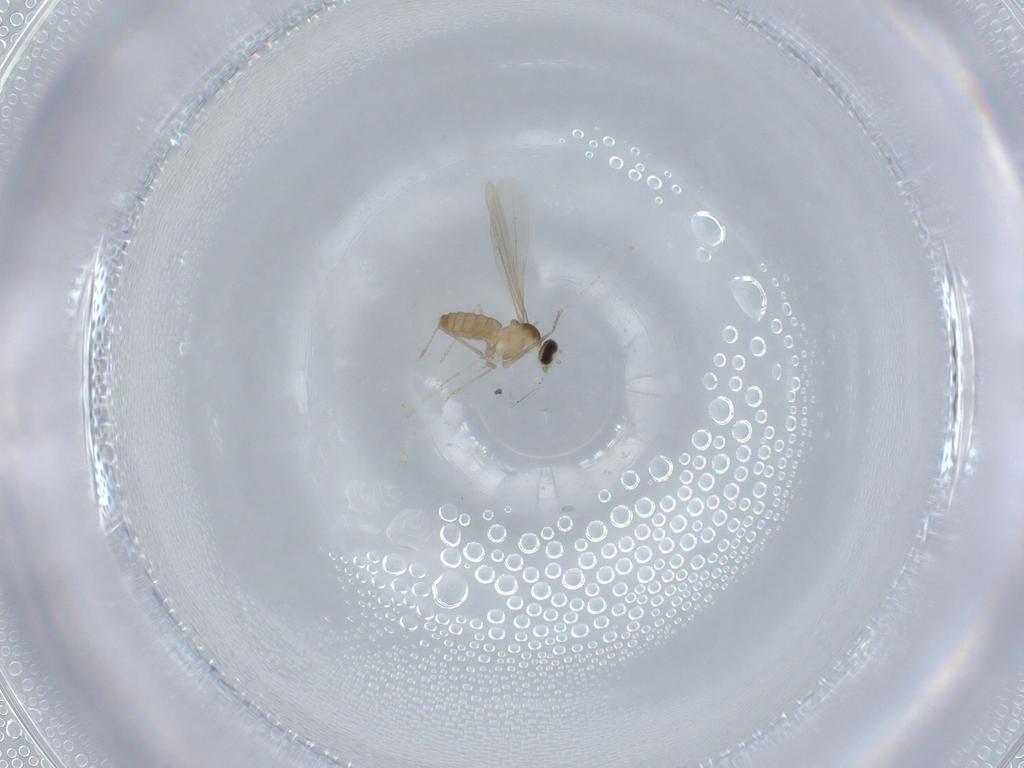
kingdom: Animalia
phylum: Arthropoda
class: Insecta
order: Diptera
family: Cecidomyiidae
